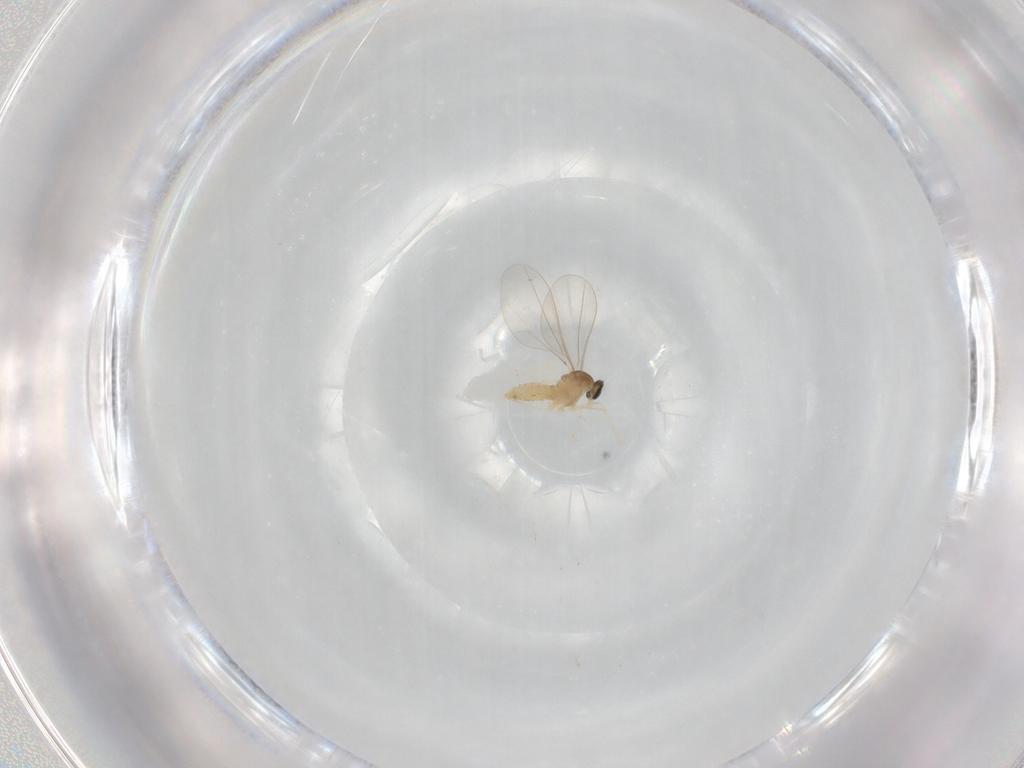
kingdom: Animalia
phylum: Arthropoda
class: Insecta
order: Diptera
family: Cecidomyiidae
